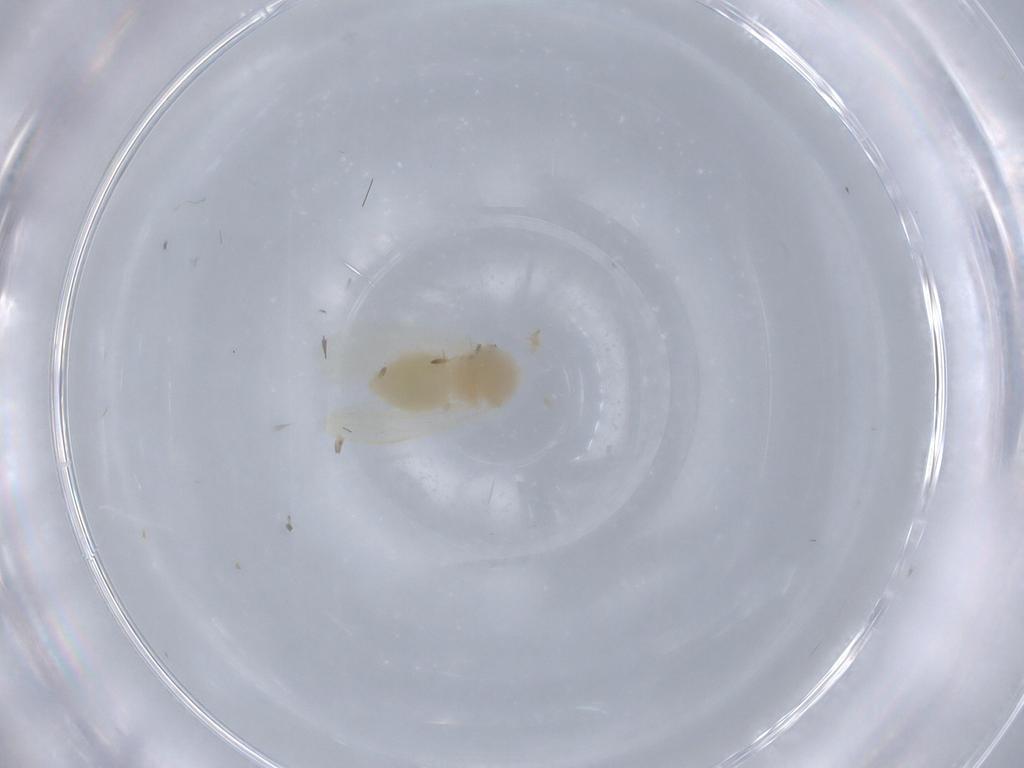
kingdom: Animalia
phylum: Arthropoda
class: Insecta
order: Hemiptera
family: Aleyrodidae
